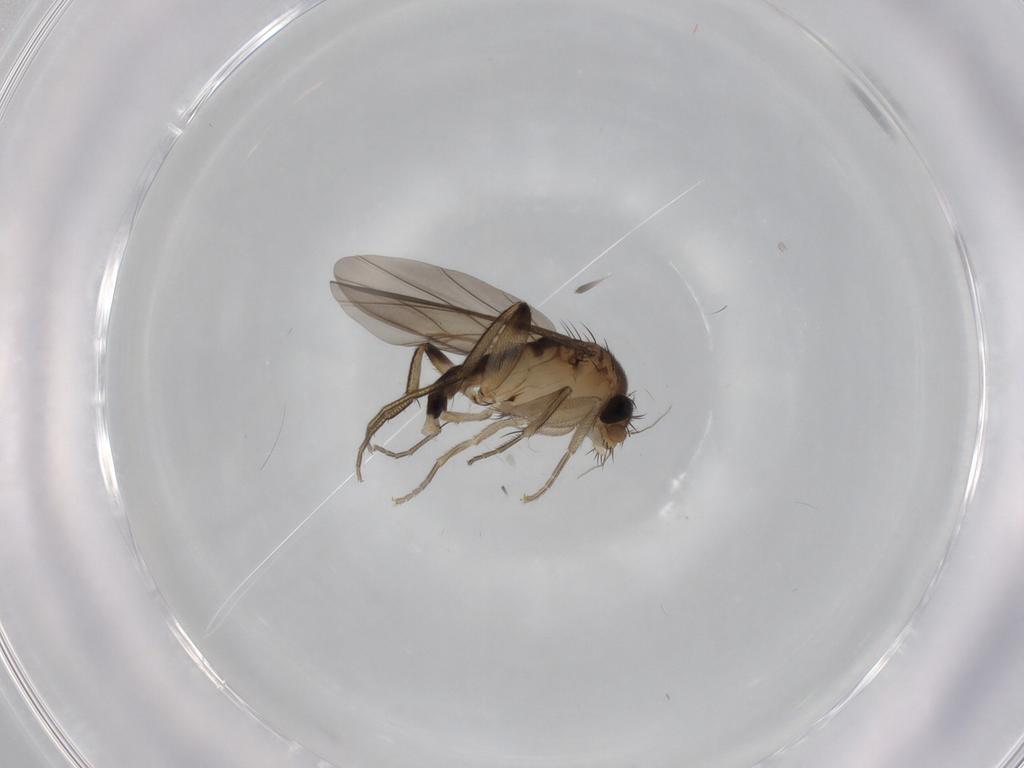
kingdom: Animalia
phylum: Arthropoda
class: Insecta
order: Diptera
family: Phoridae
